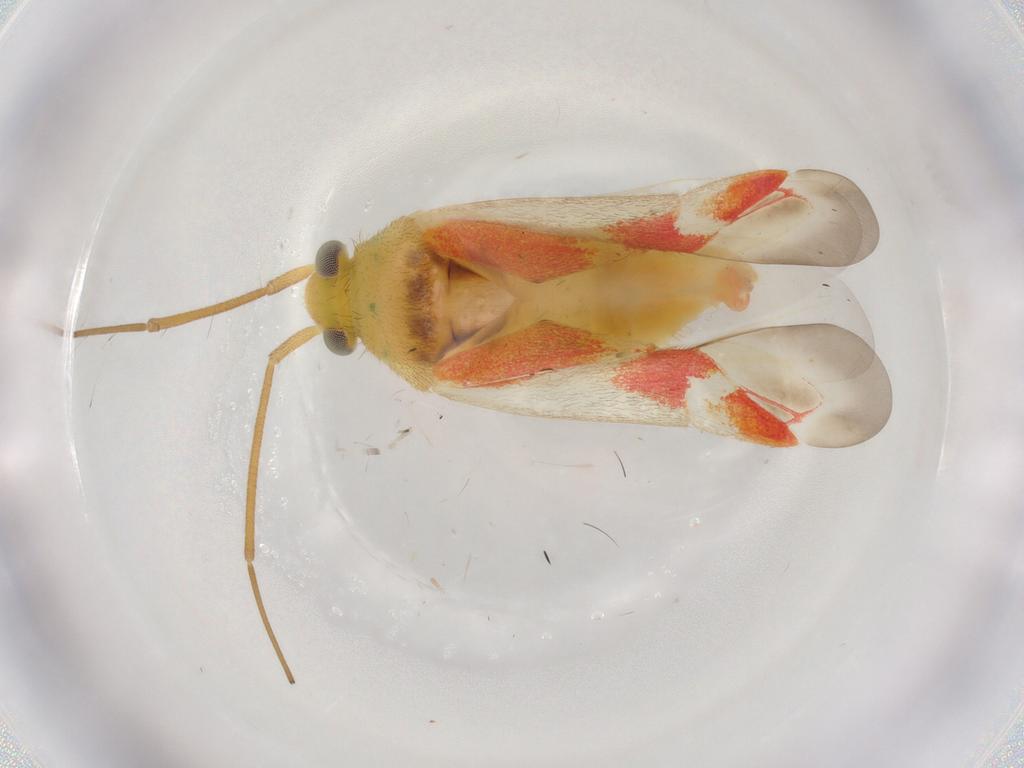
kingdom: Animalia
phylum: Arthropoda
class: Insecta
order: Hemiptera
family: Miridae
